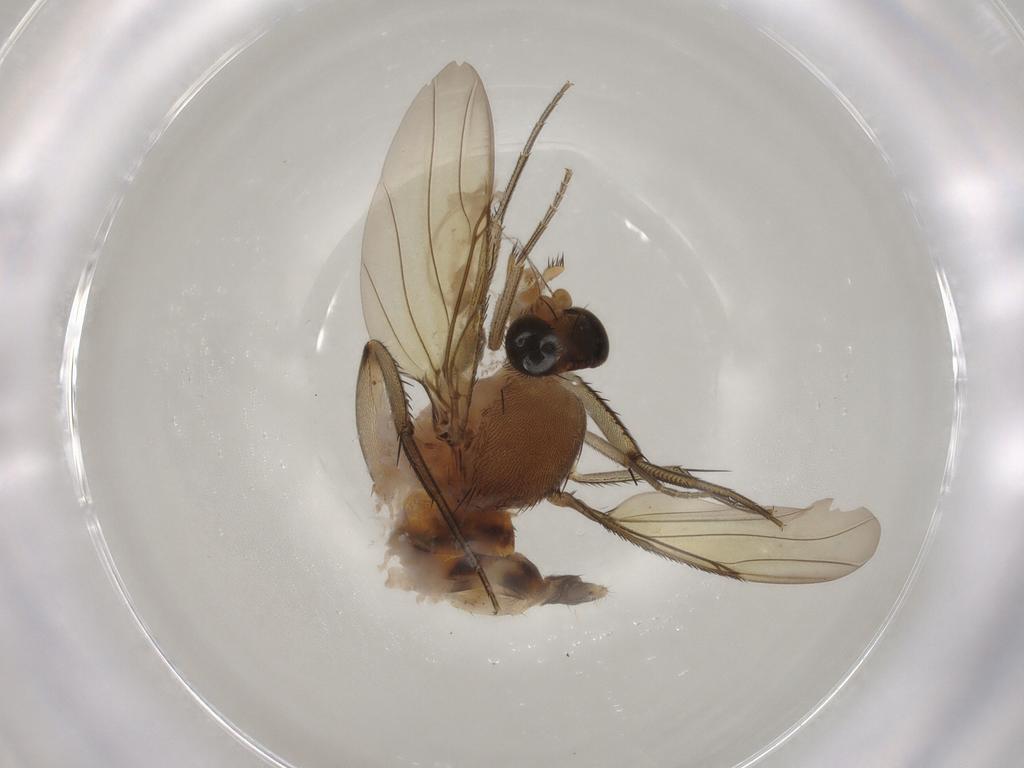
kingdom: Animalia
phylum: Arthropoda
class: Insecta
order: Diptera
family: Phoridae
